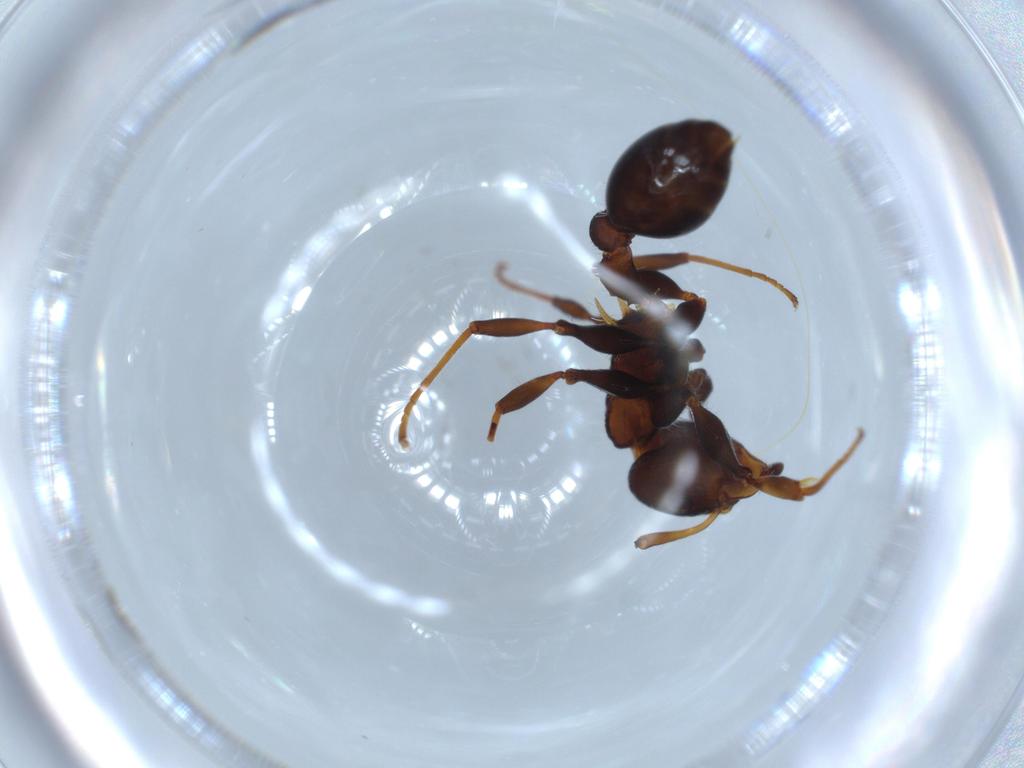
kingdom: Animalia
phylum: Arthropoda
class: Insecta
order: Hymenoptera
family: Formicidae
